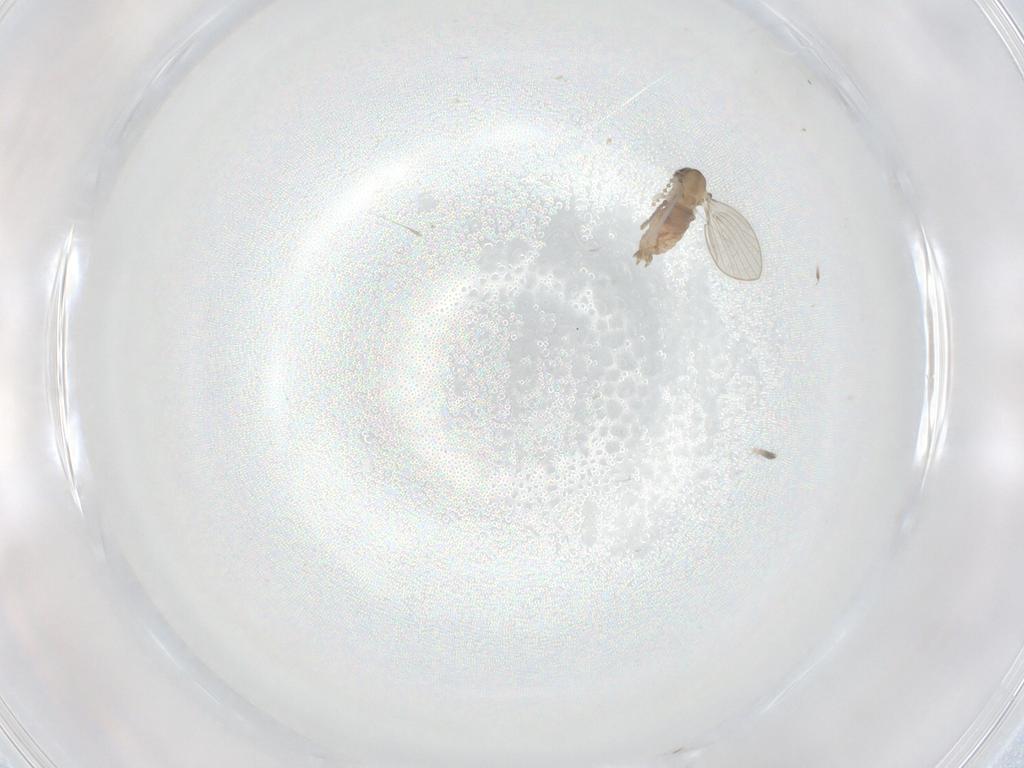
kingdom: Animalia
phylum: Arthropoda
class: Insecta
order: Diptera
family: Psychodidae
